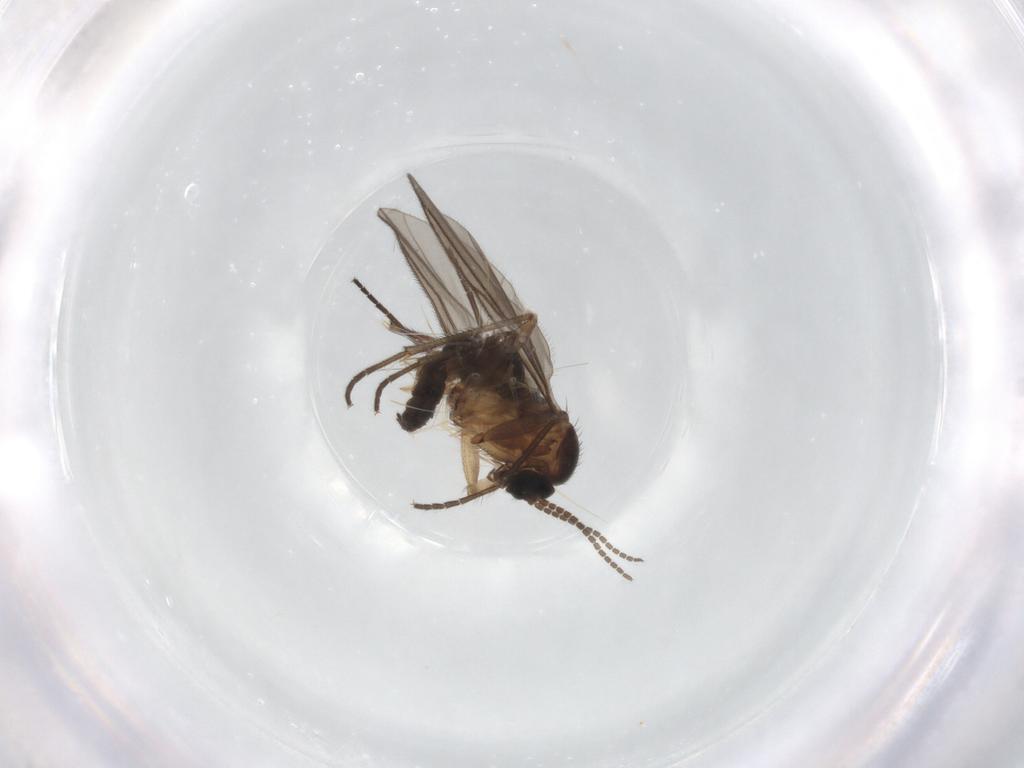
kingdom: Animalia
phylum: Arthropoda
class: Insecta
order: Diptera
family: Sciaridae
